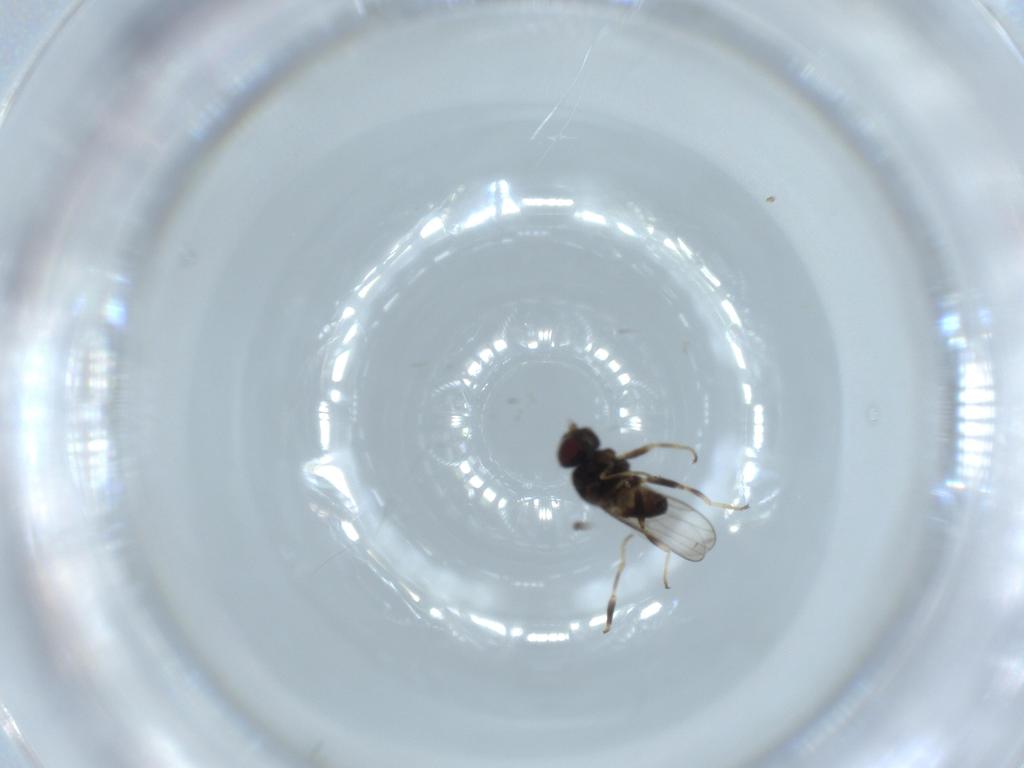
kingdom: Animalia
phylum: Arthropoda
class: Insecta
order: Diptera
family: Chloropidae
